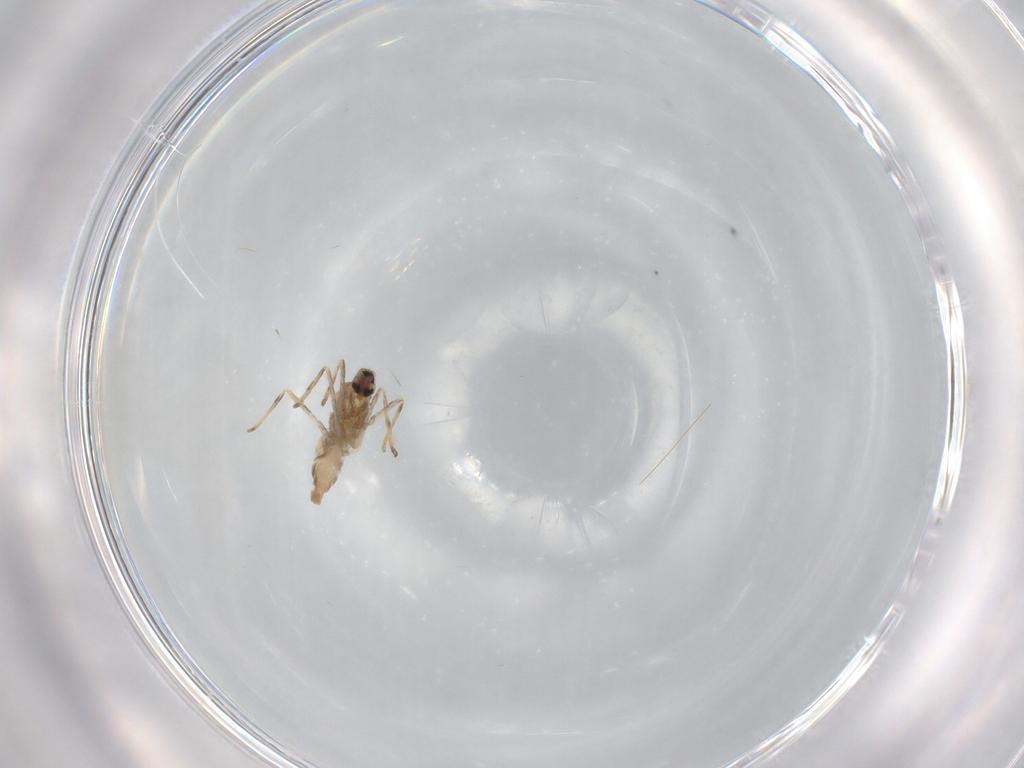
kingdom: Animalia
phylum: Arthropoda
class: Insecta
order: Diptera
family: Cecidomyiidae
